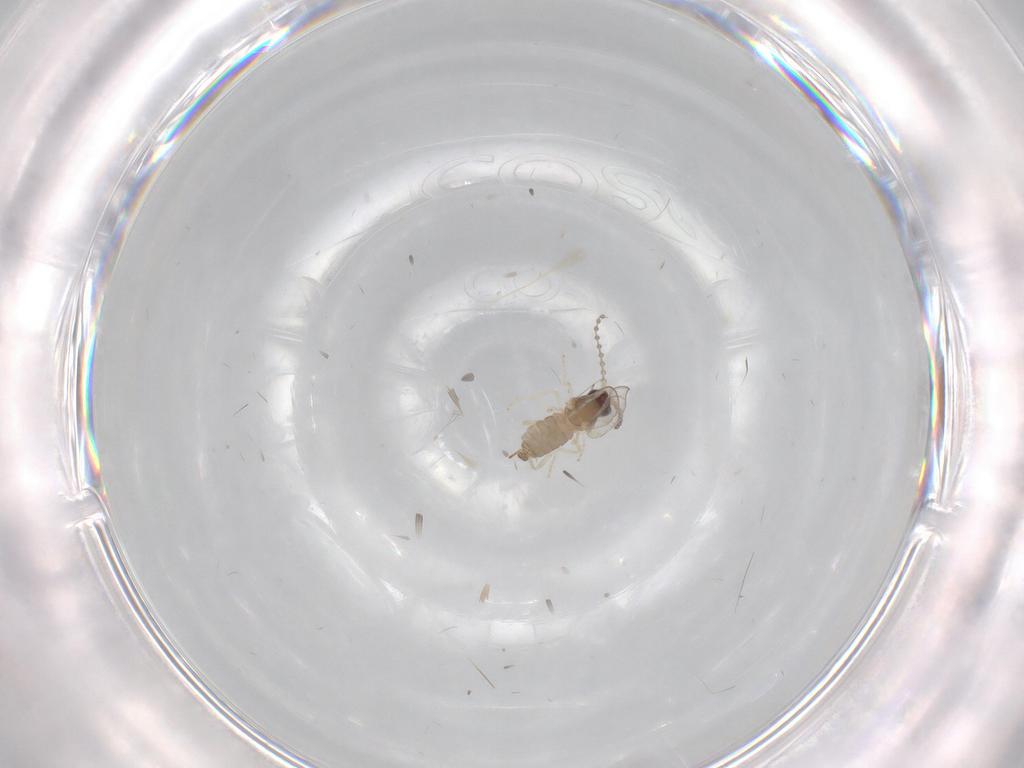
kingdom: Animalia
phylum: Arthropoda
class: Insecta
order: Diptera
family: Cecidomyiidae
